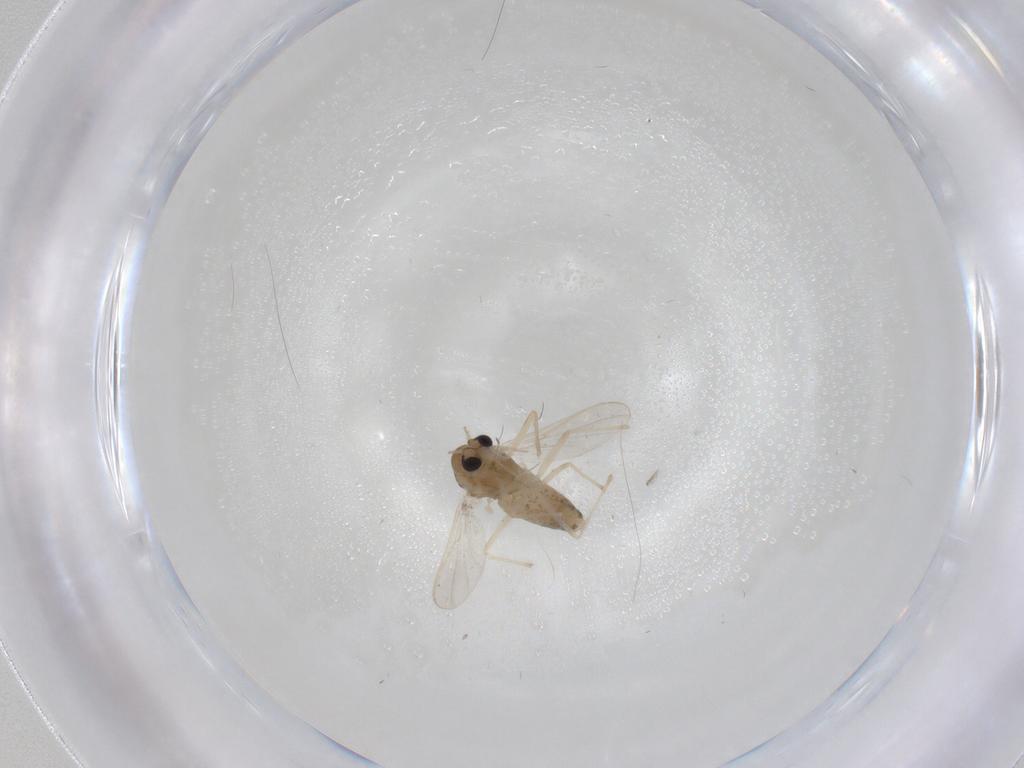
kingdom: Animalia
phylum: Arthropoda
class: Insecta
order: Diptera
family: Chironomidae
